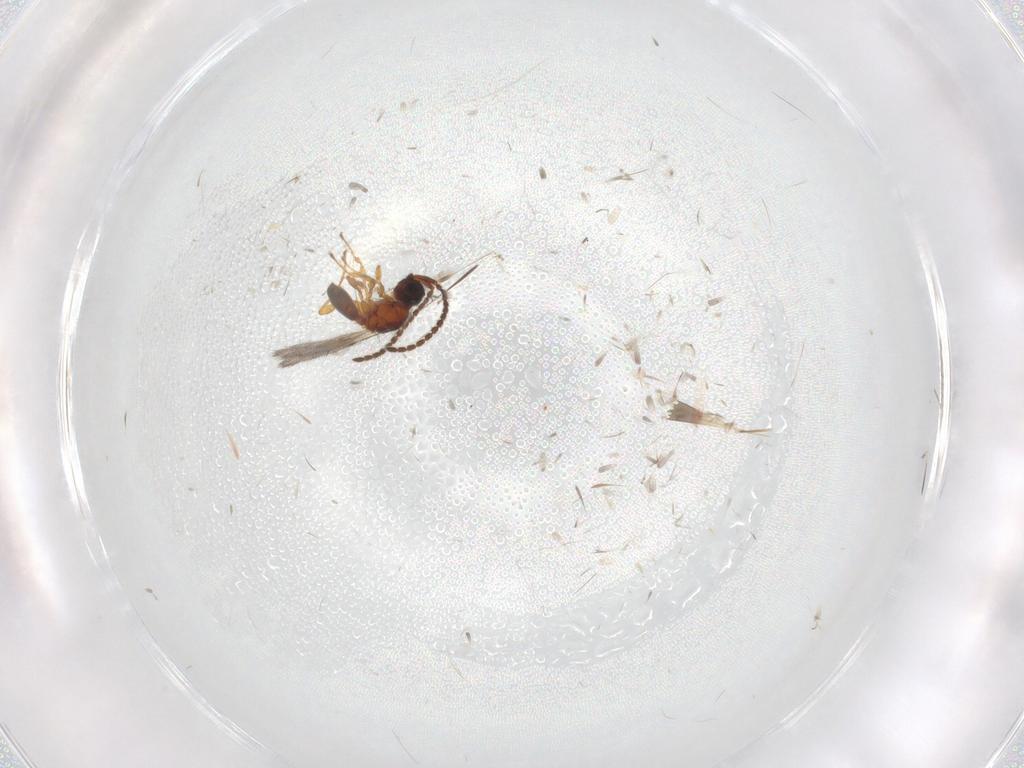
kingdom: Animalia
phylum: Arthropoda
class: Insecta
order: Hymenoptera
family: Diapriidae
